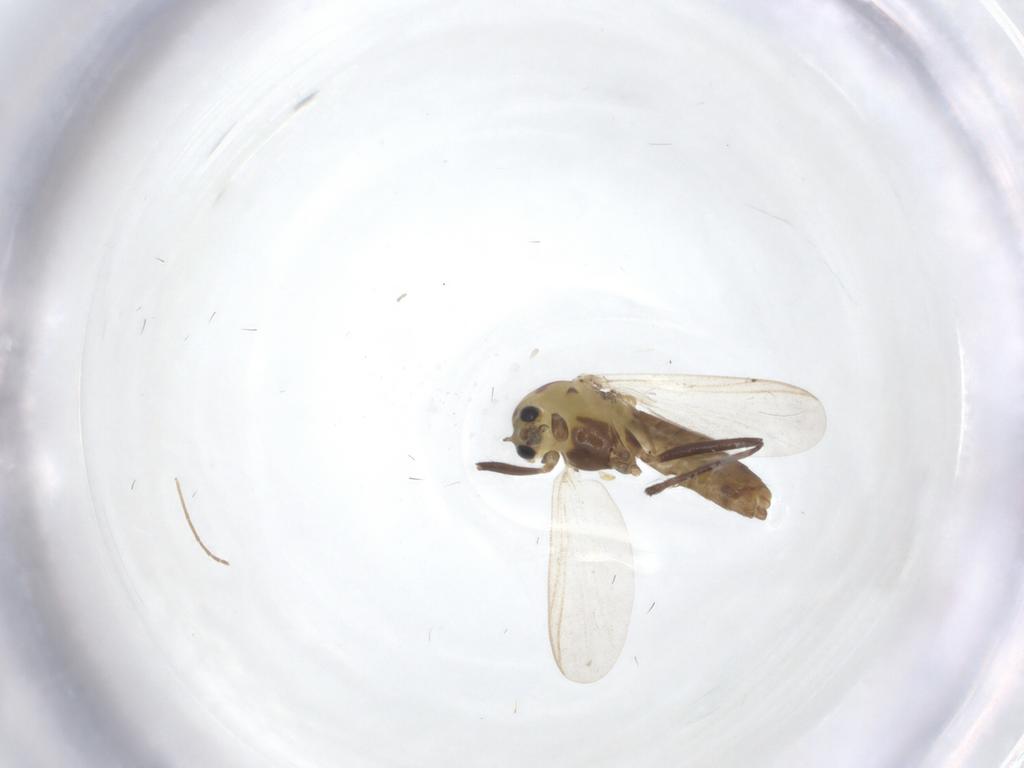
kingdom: Animalia
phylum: Arthropoda
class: Insecta
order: Diptera
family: Chironomidae
